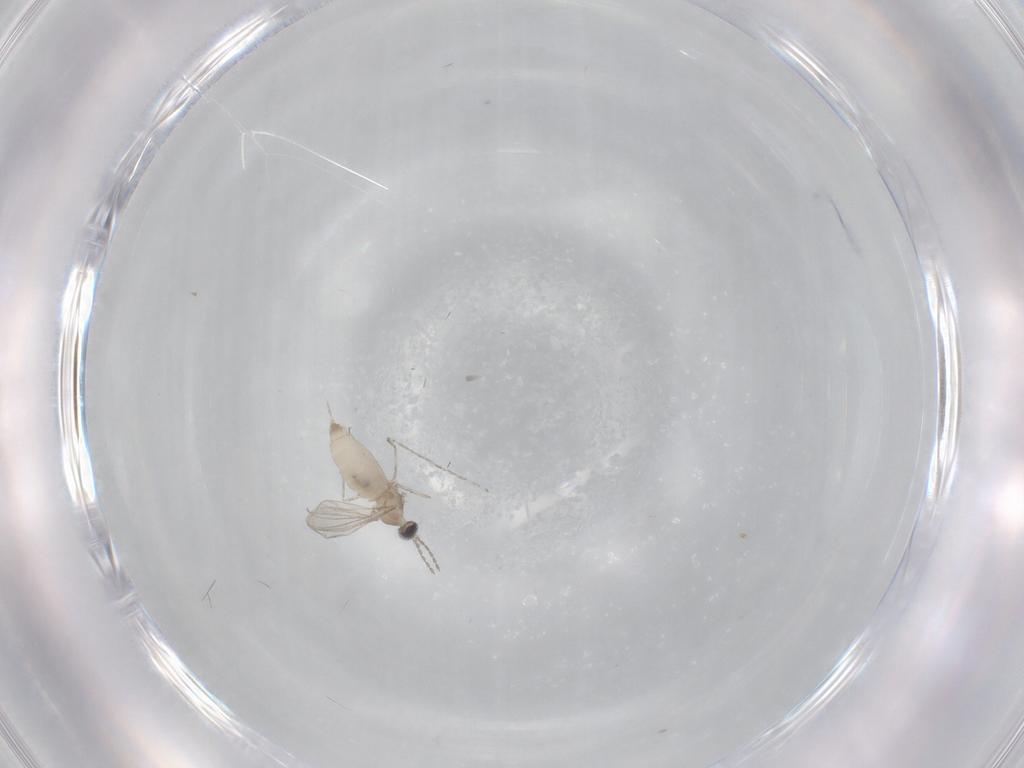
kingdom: Animalia
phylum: Arthropoda
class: Insecta
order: Diptera
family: Cecidomyiidae
